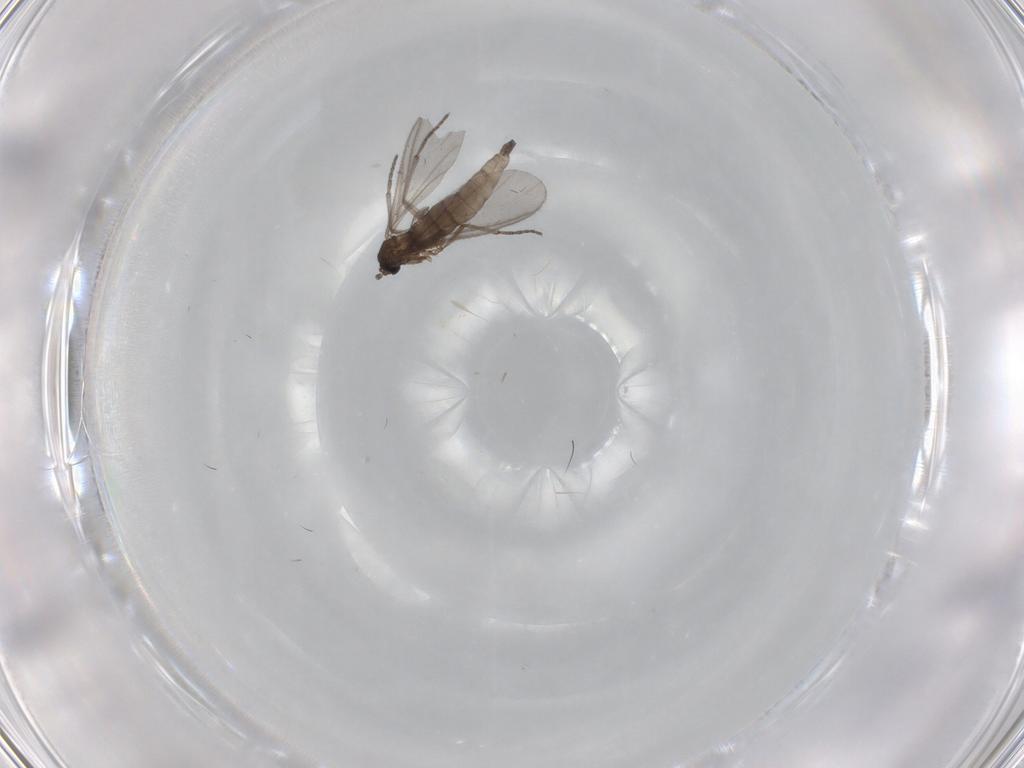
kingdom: Animalia
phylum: Arthropoda
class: Insecta
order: Diptera
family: Sciaridae
